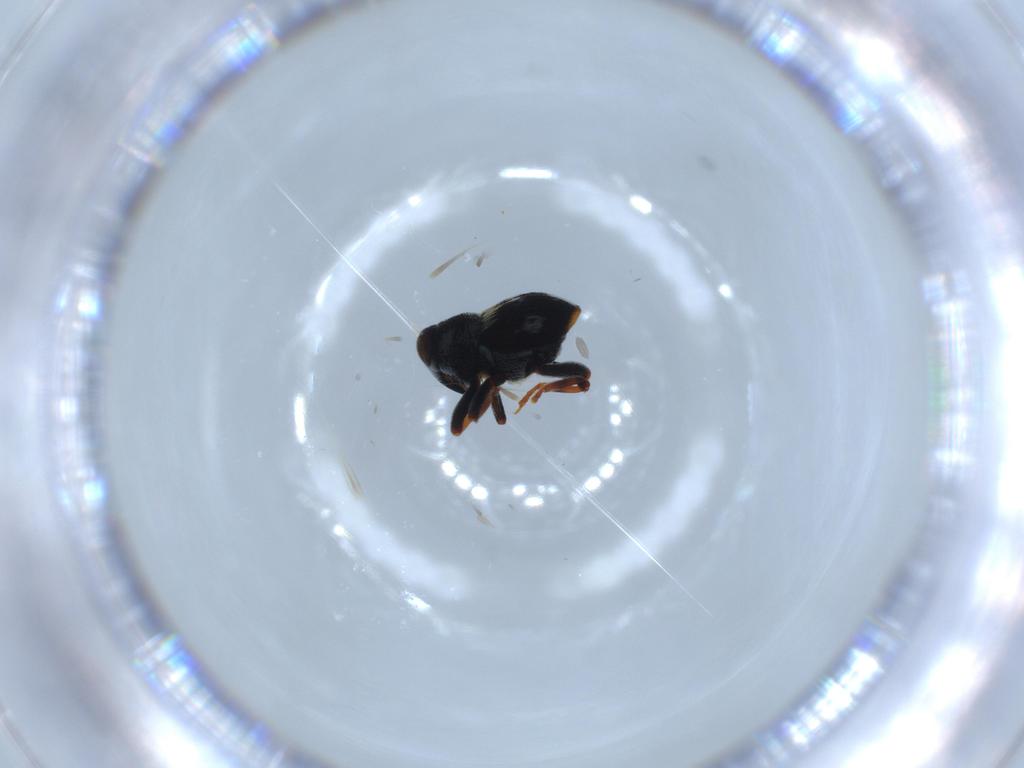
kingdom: Animalia
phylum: Arthropoda
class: Insecta
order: Coleoptera
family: Curculionidae
